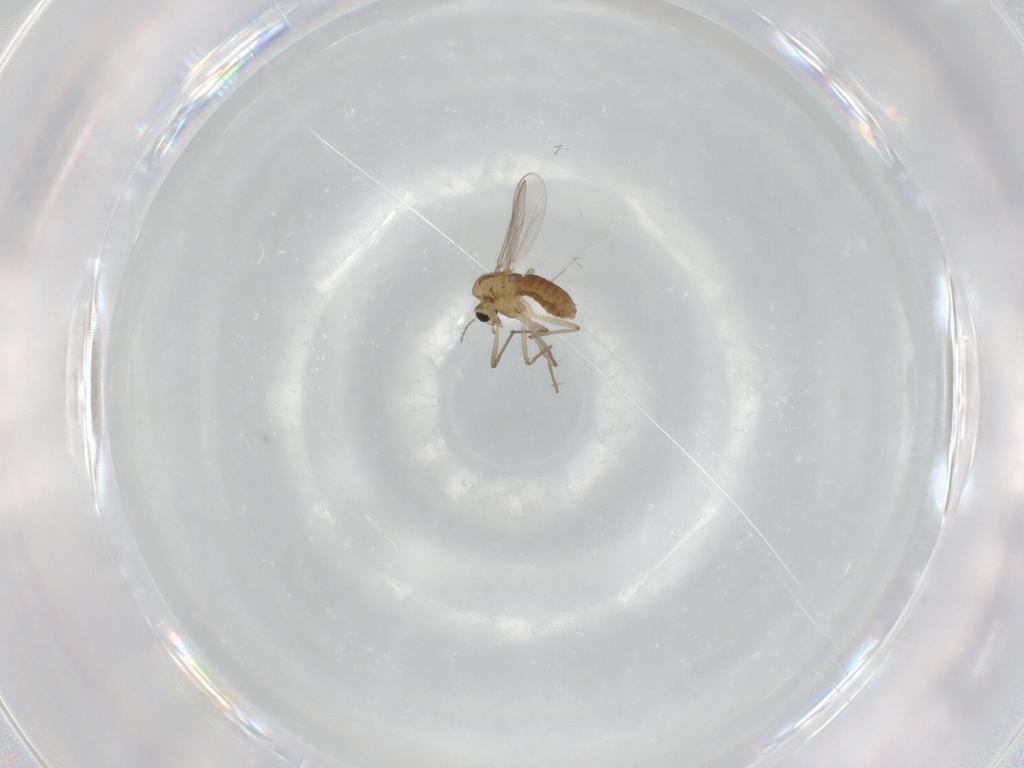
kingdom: Animalia
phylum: Arthropoda
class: Insecta
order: Diptera
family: Chironomidae
